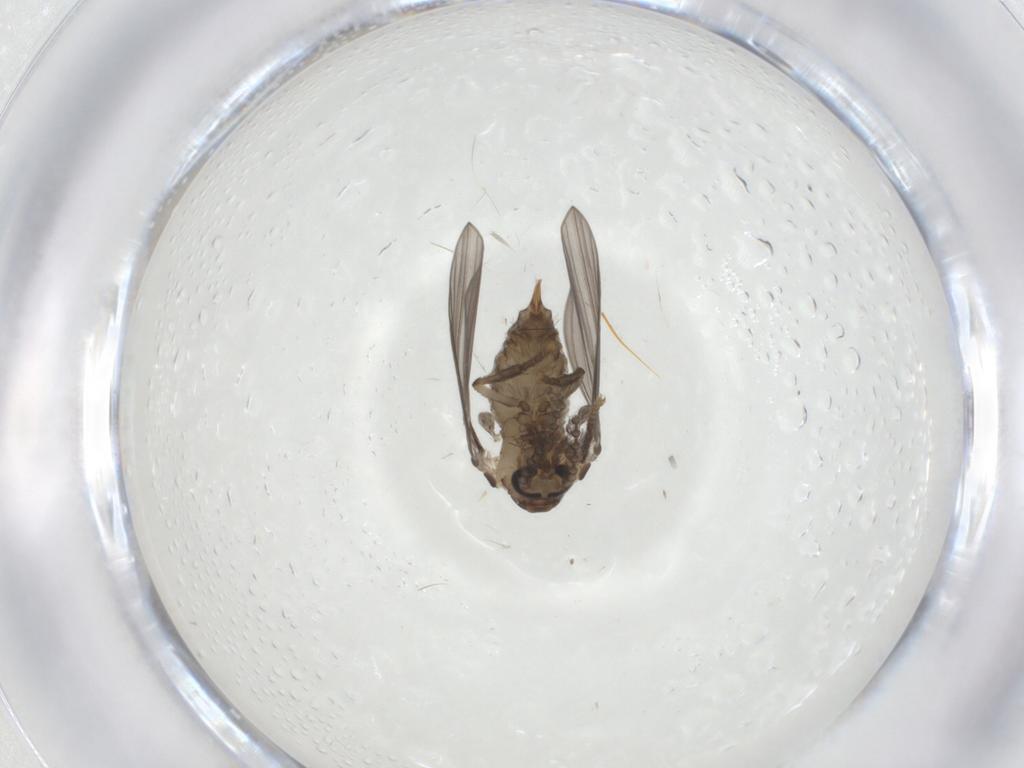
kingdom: Animalia
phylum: Arthropoda
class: Insecta
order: Diptera
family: Psychodidae
